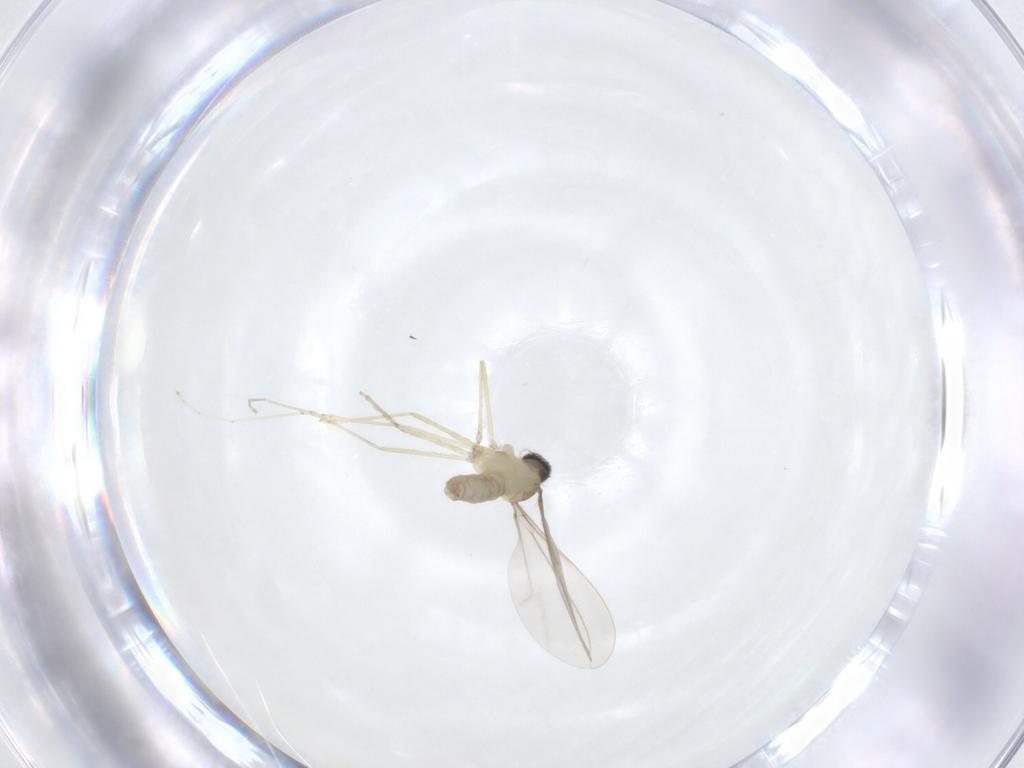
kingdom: Animalia
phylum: Arthropoda
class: Insecta
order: Diptera
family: Cecidomyiidae
